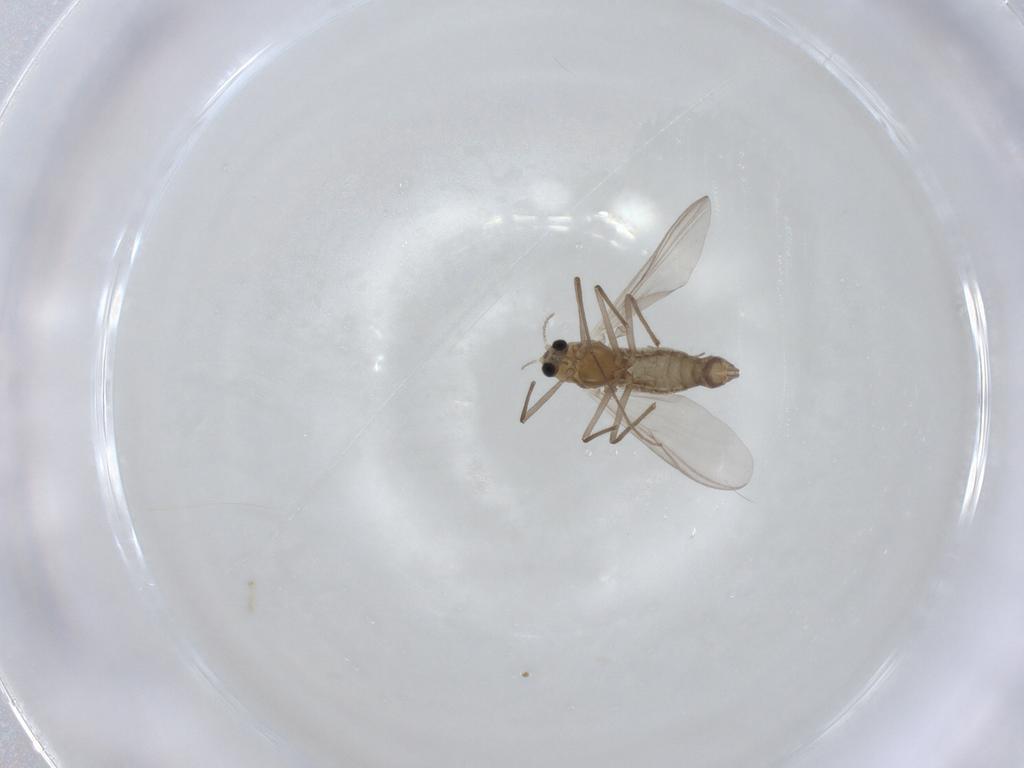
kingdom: Animalia
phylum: Arthropoda
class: Insecta
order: Diptera
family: Chironomidae
